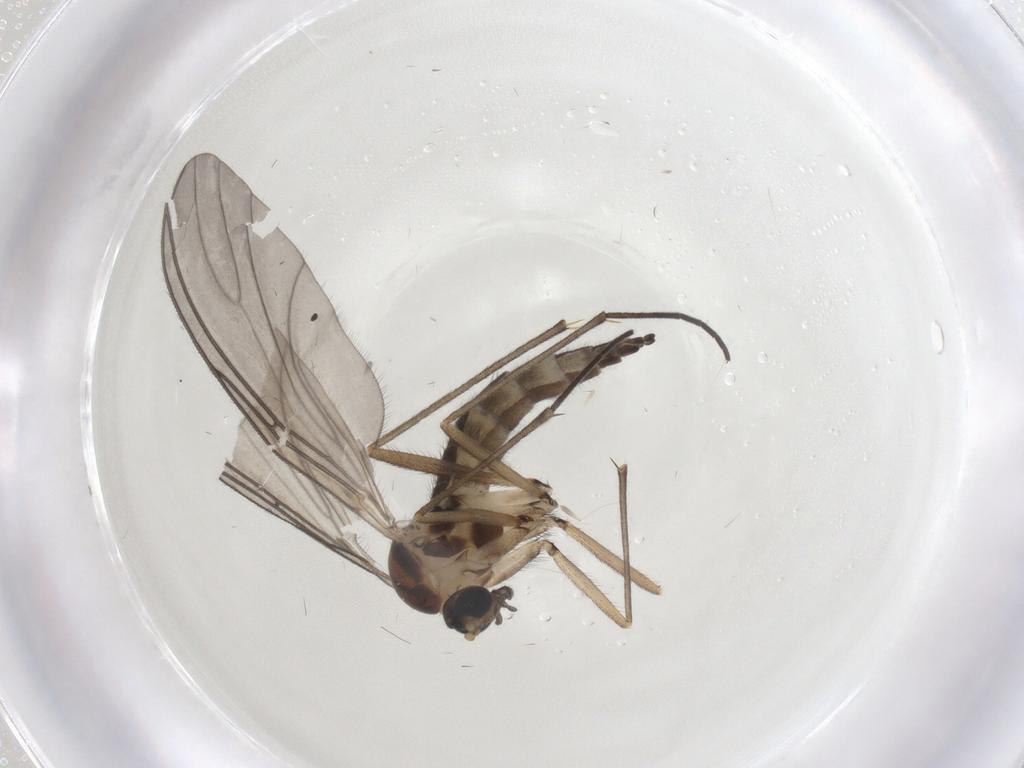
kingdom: Animalia
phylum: Arthropoda
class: Insecta
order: Diptera
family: Sciaridae
